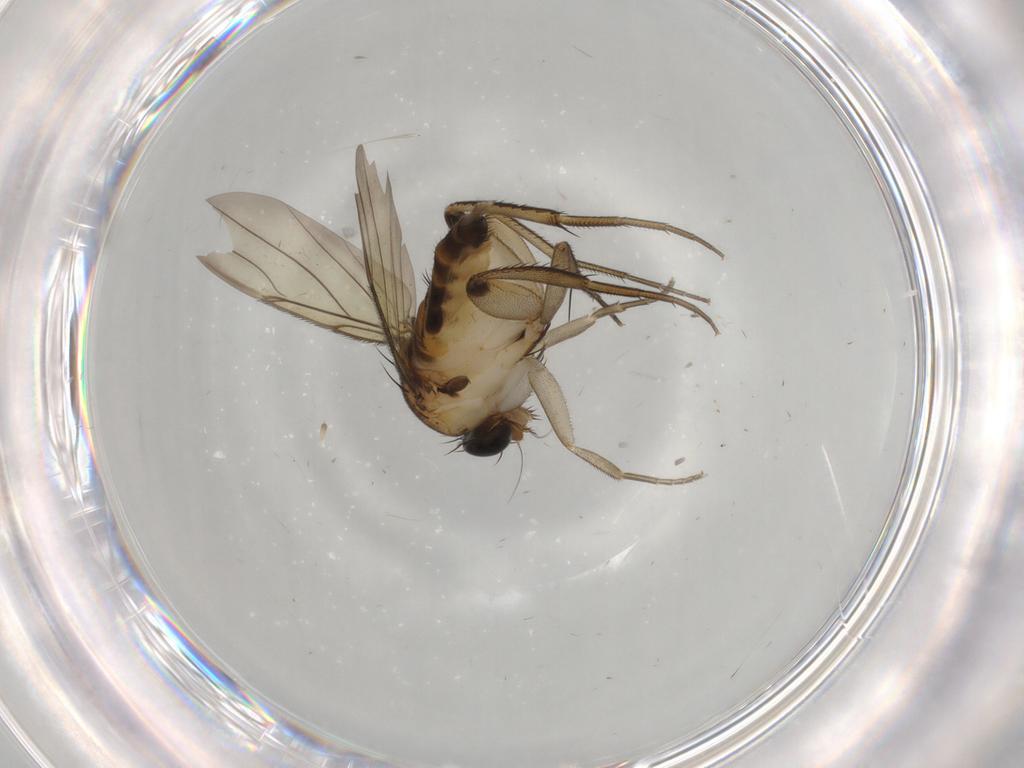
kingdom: Animalia
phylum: Arthropoda
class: Insecta
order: Diptera
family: Phoridae
